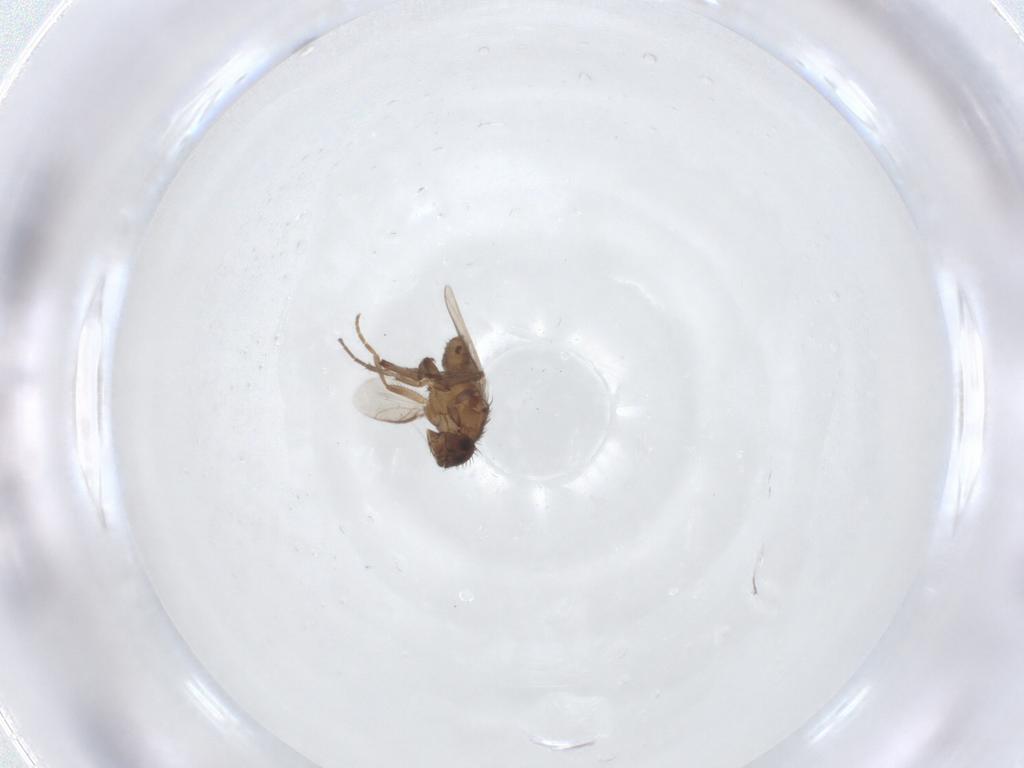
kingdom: Animalia
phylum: Arthropoda
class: Insecta
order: Diptera
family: Sphaeroceridae
